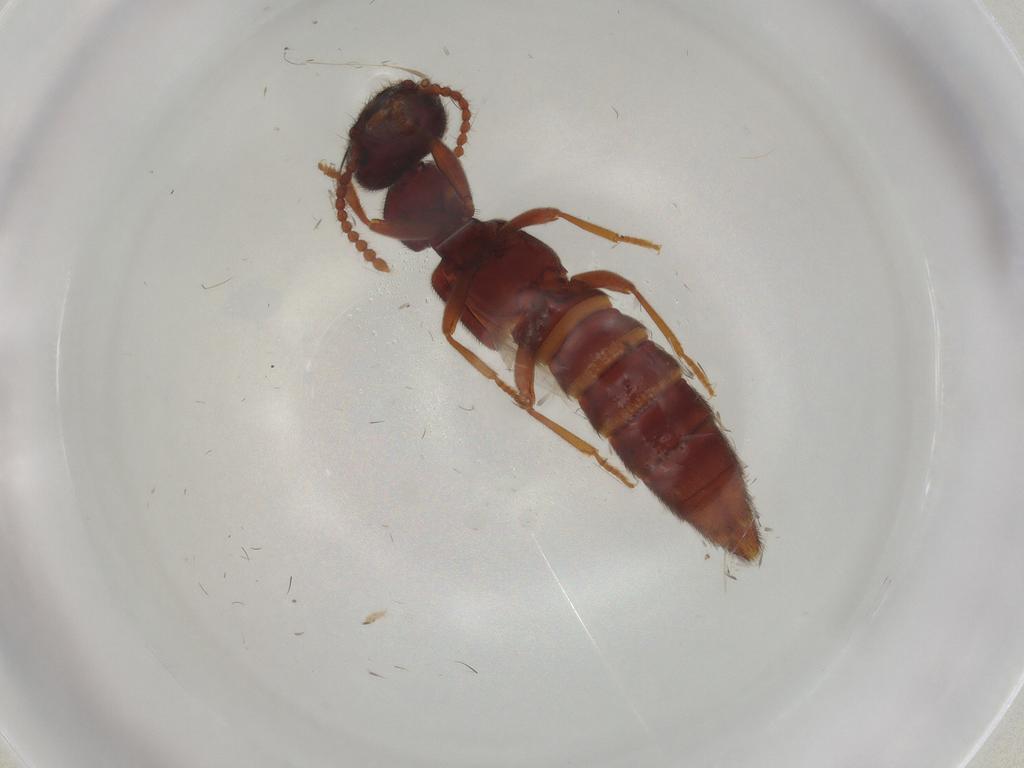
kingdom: Animalia
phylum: Arthropoda
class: Insecta
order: Coleoptera
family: Staphylinidae
